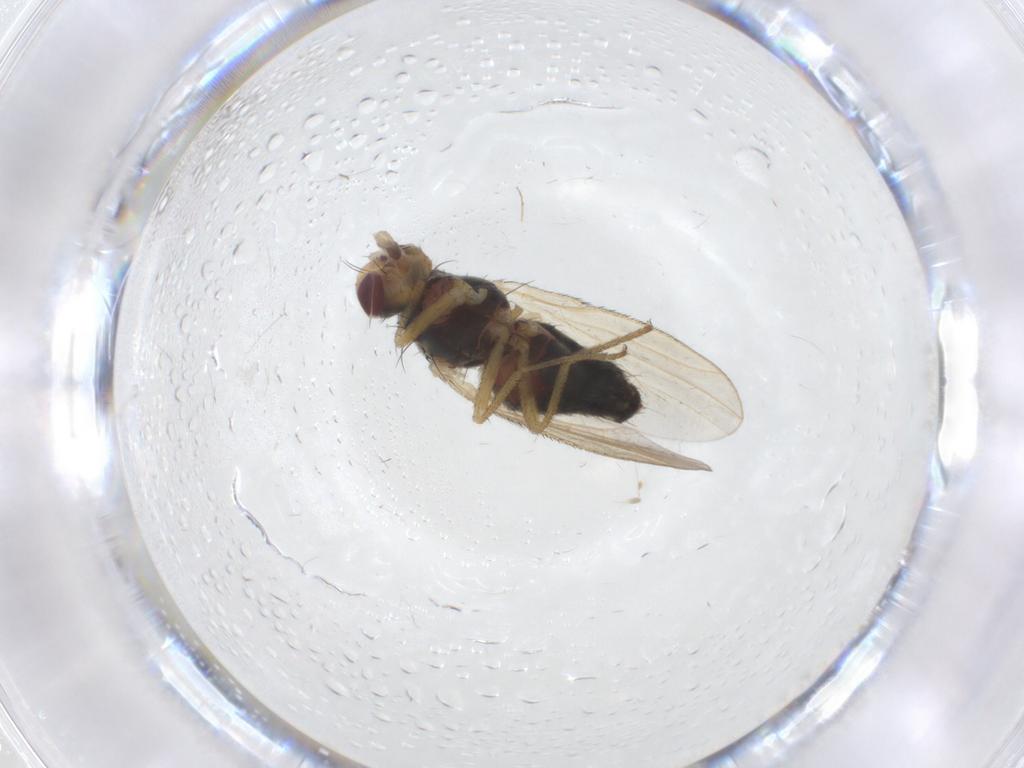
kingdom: Animalia
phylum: Arthropoda
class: Insecta
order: Diptera
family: Heleomyzidae
